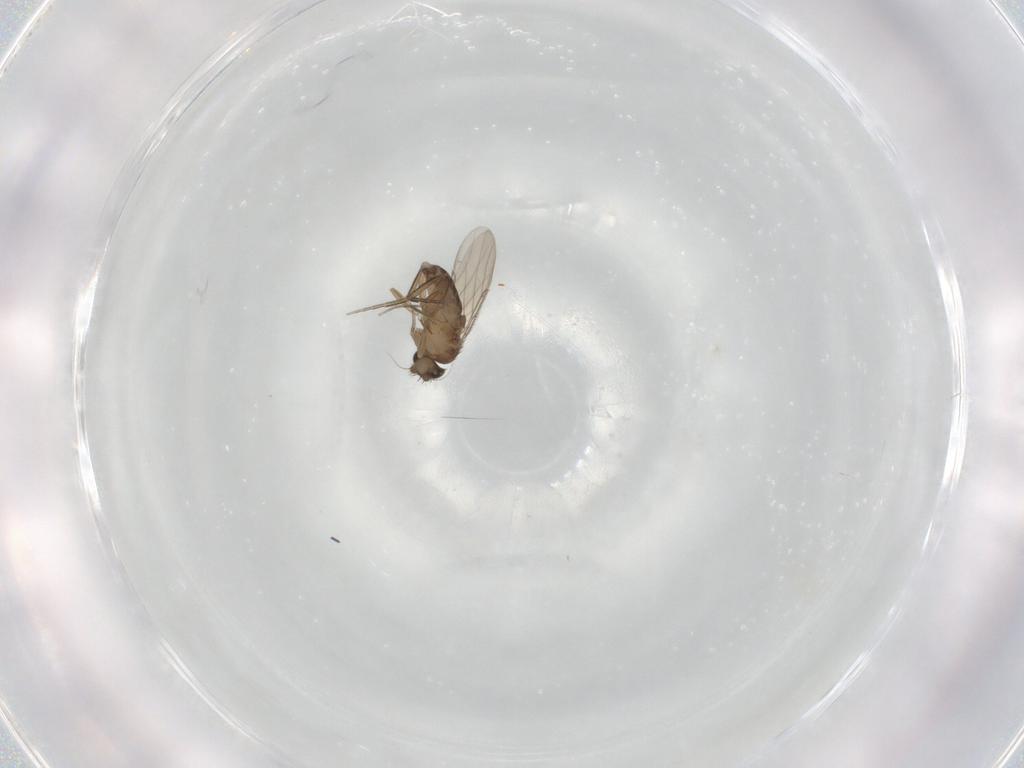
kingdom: Animalia
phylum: Arthropoda
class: Insecta
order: Diptera
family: Phoridae
